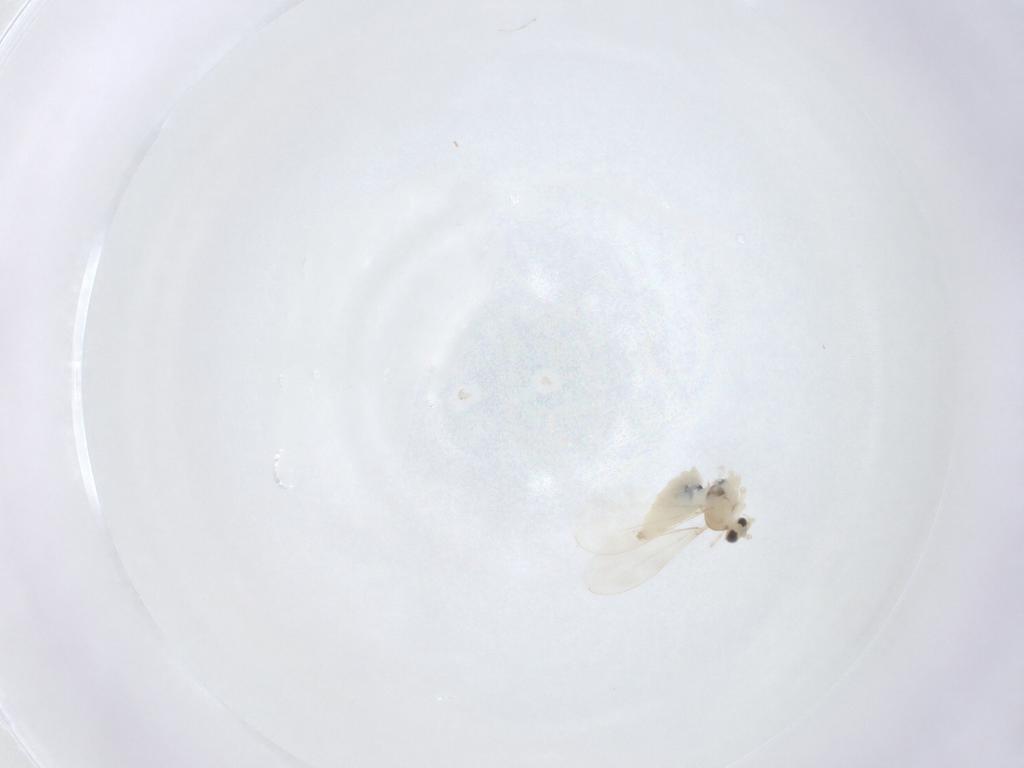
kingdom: Animalia
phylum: Arthropoda
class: Insecta
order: Diptera
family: Cecidomyiidae
